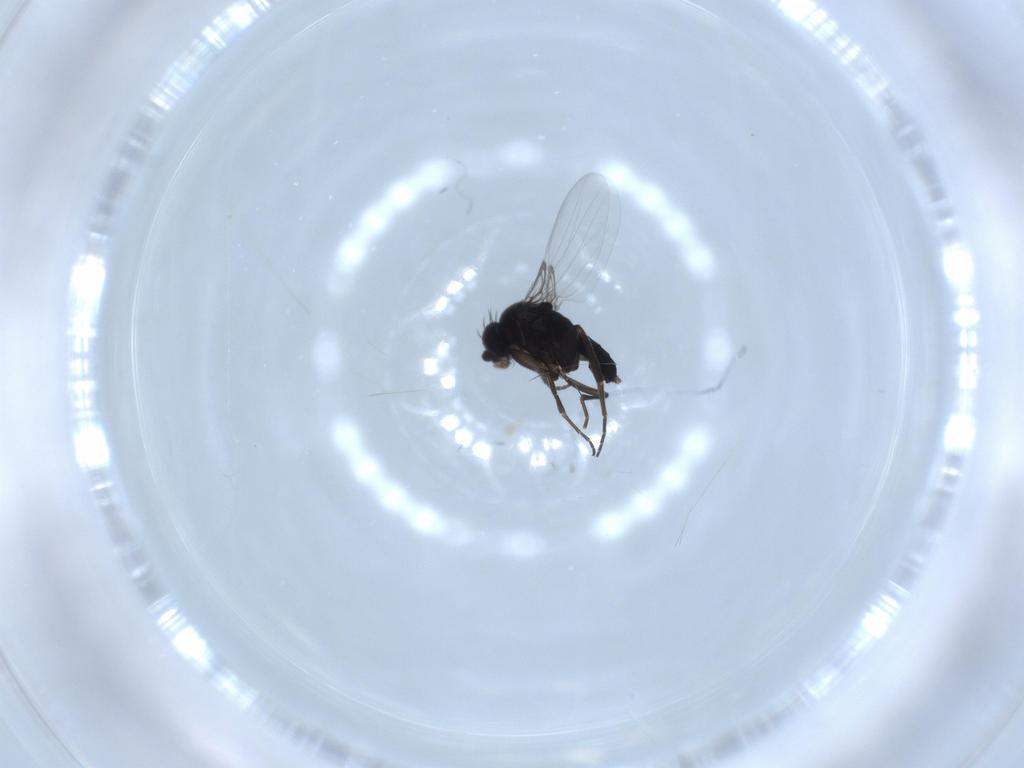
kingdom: Animalia
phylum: Arthropoda
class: Insecta
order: Diptera
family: Phoridae
